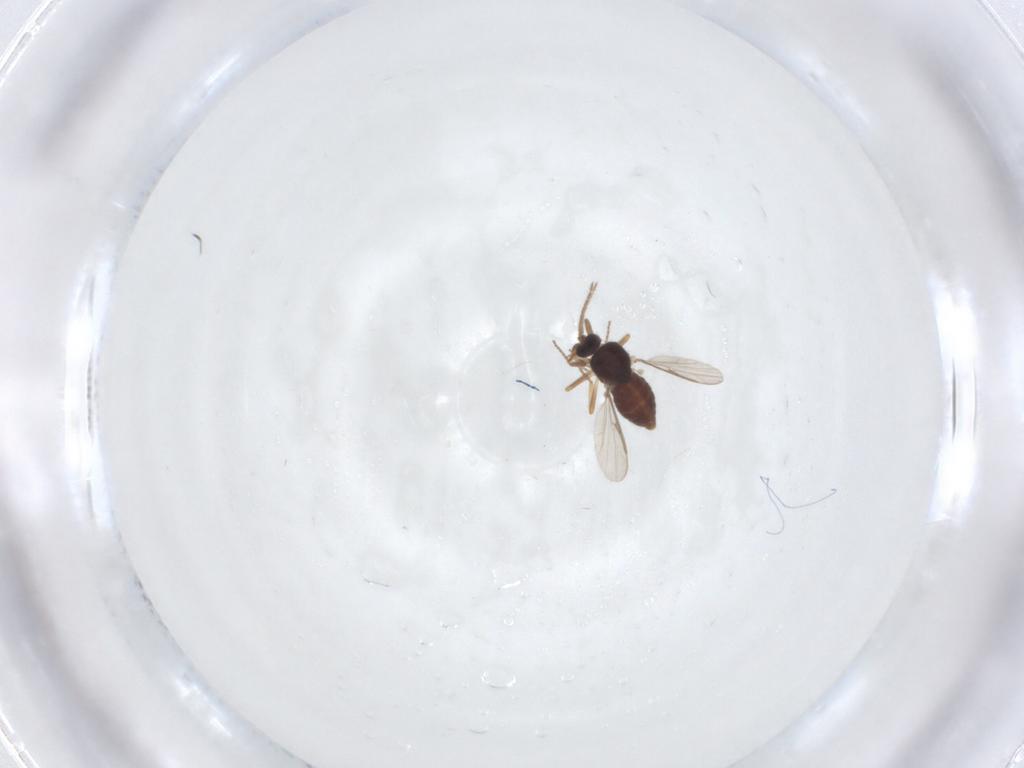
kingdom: Animalia
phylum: Arthropoda
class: Insecta
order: Diptera
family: Ceratopogonidae
